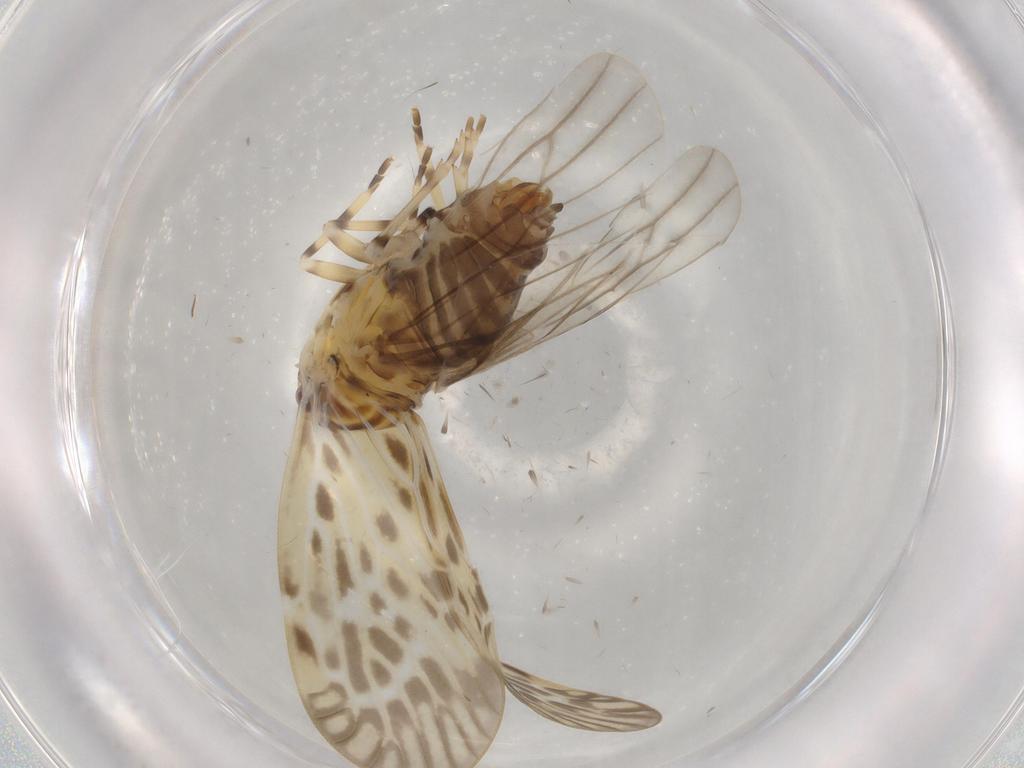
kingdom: Animalia
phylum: Arthropoda
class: Insecta
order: Hemiptera
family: Derbidae
